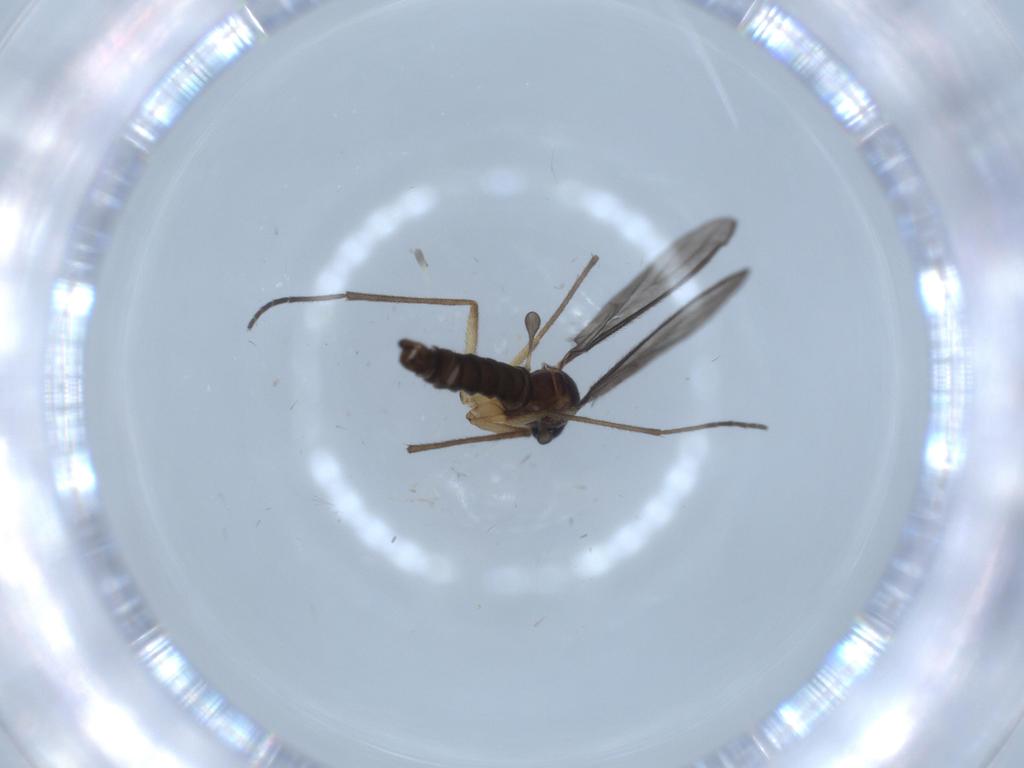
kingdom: Animalia
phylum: Arthropoda
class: Insecta
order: Diptera
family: Sciaridae
